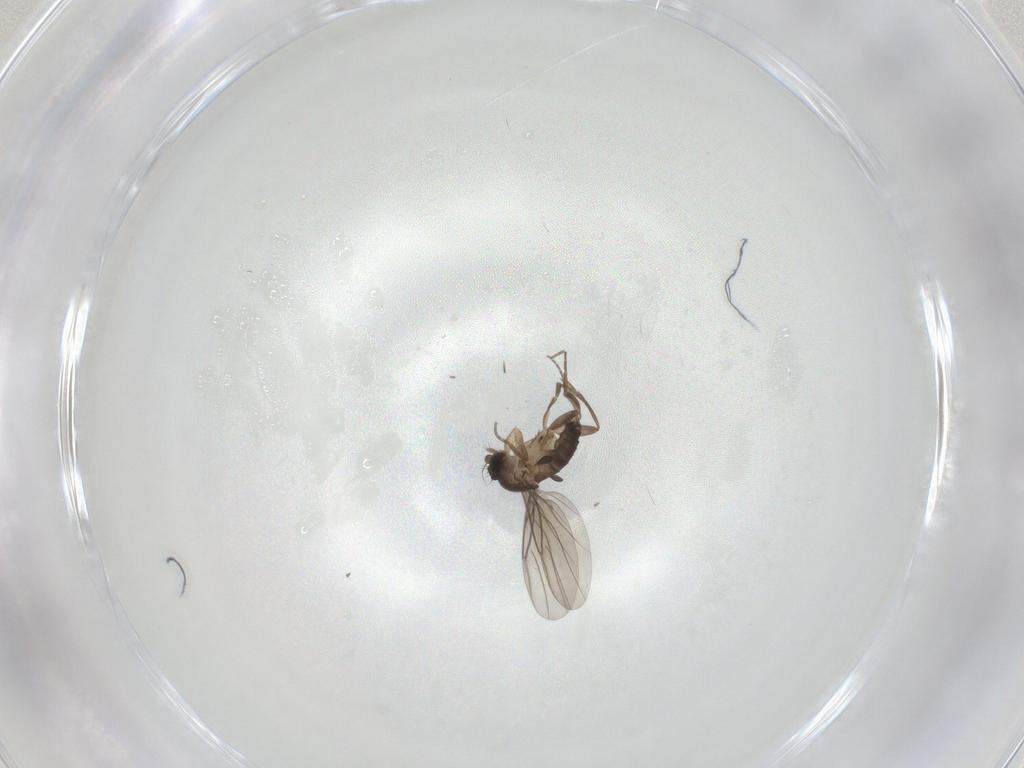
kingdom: Animalia
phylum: Arthropoda
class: Insecta
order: Diptera
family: Chironomidae
